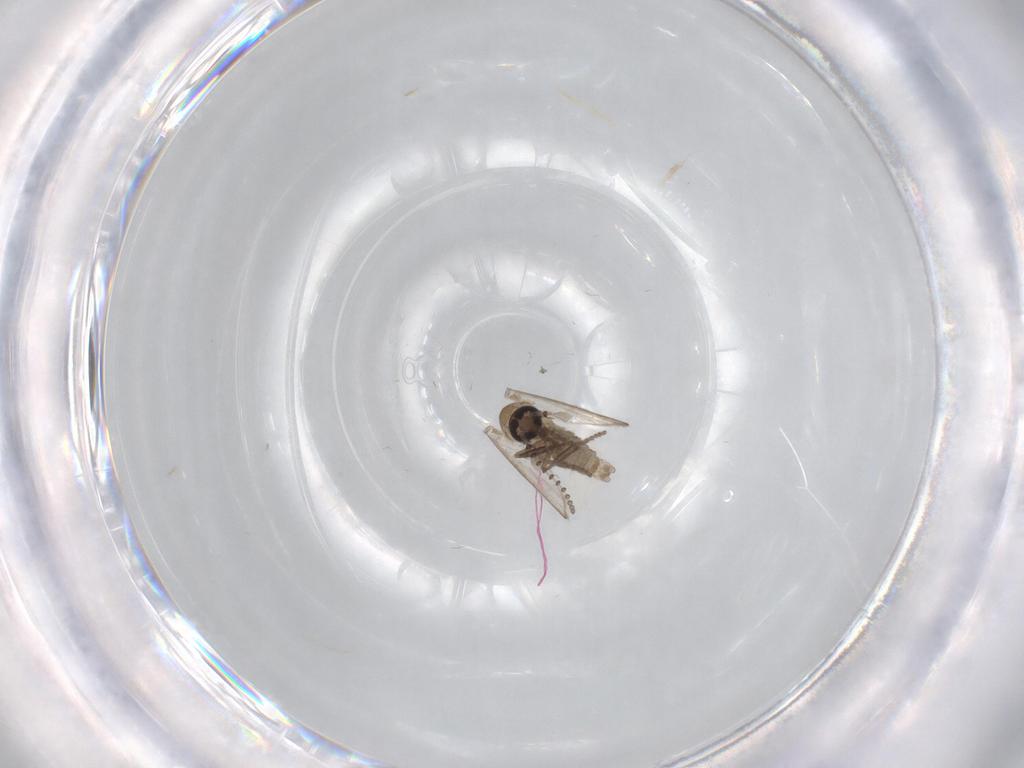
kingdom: Animalia
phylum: Arthropoda
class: Insecta
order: Diptera
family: Psychodidae
